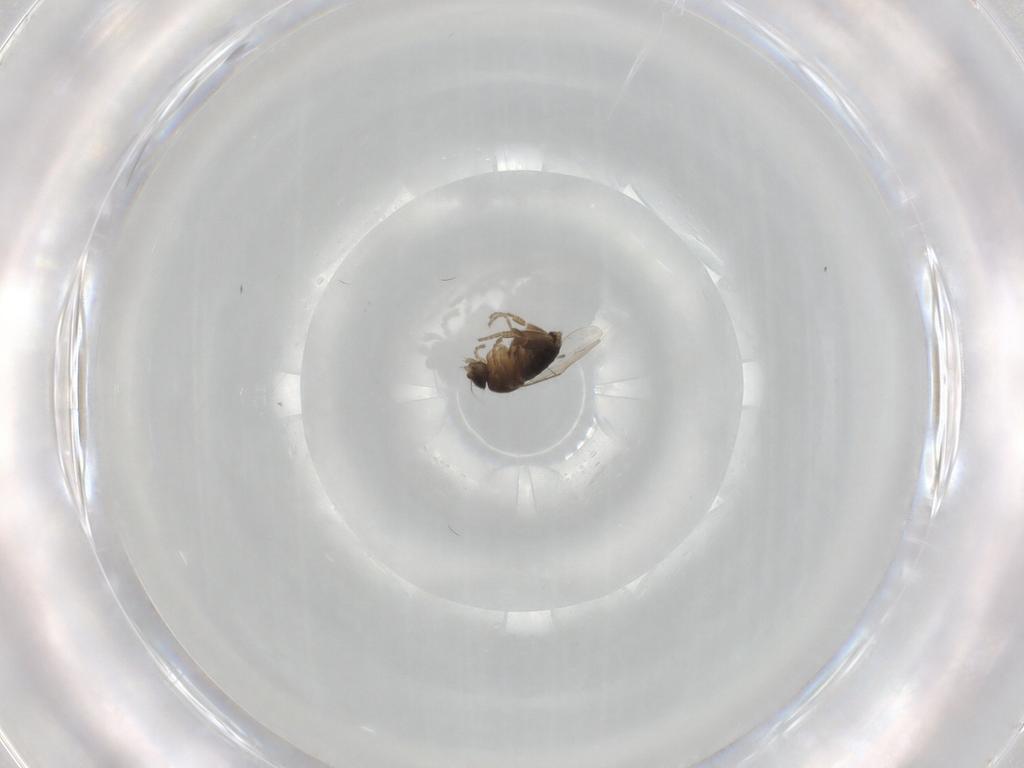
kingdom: Animalia
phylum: Arthropoda
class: Insecta
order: Diptera
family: Phoridae
